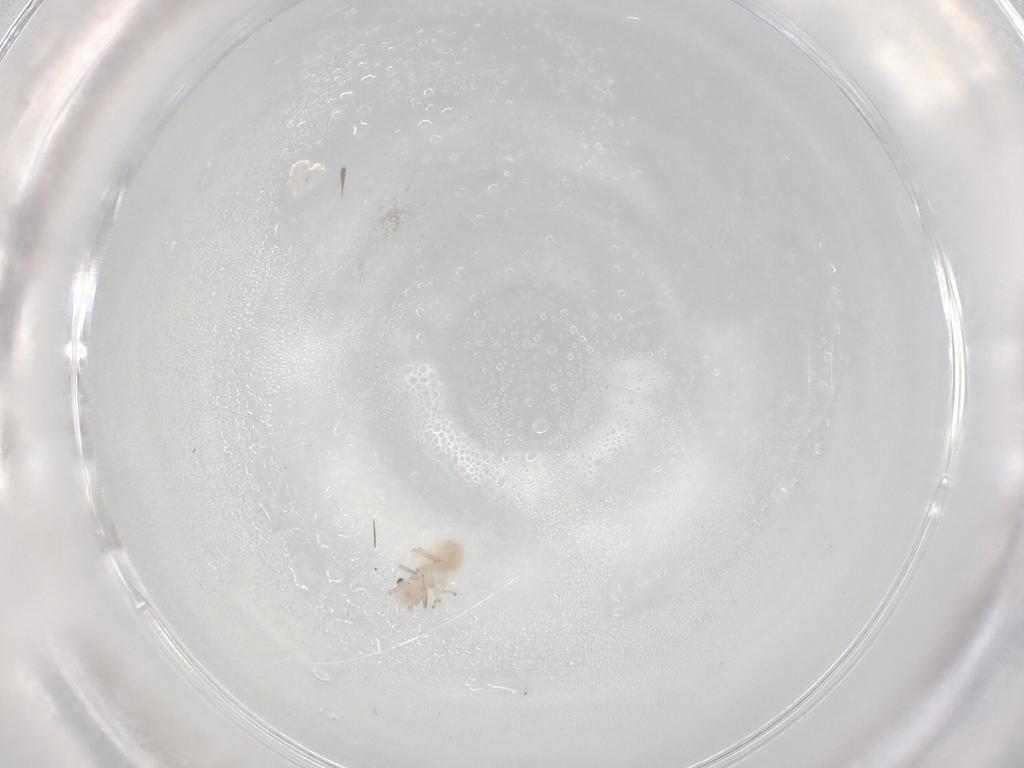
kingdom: Animalia
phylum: Arthropoda
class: Insecta
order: Psocodea
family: Caeciliusidae
